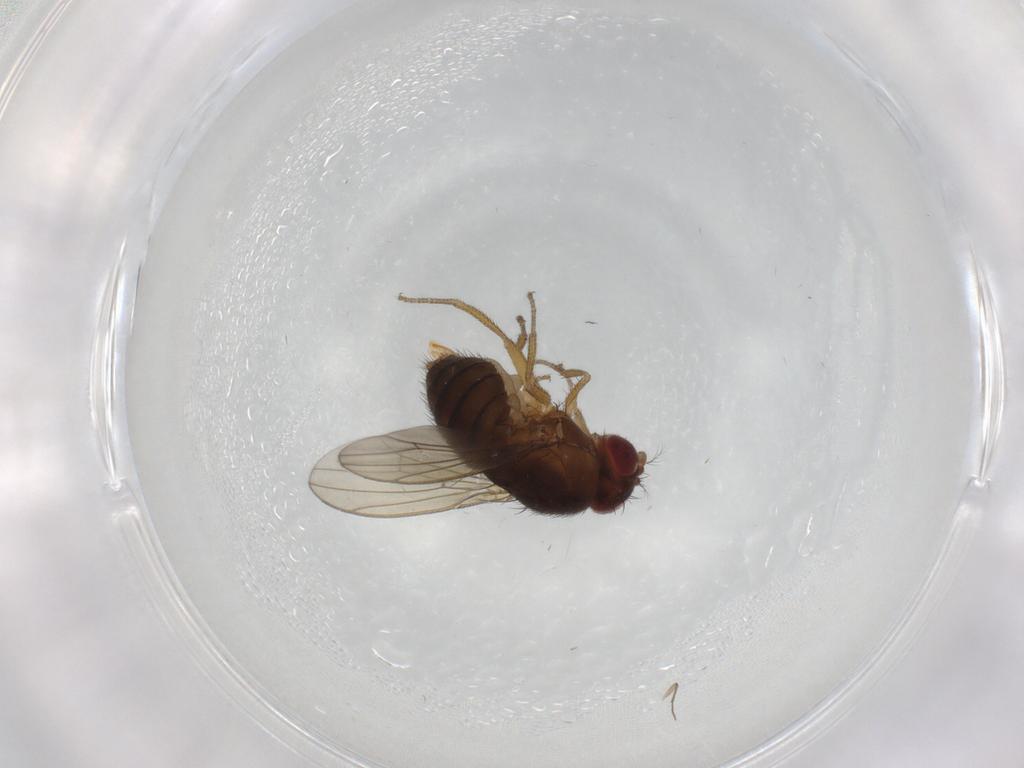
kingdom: Animalia
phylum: Arthropoda
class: Insecta
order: Diptera
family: Drosophilidae
